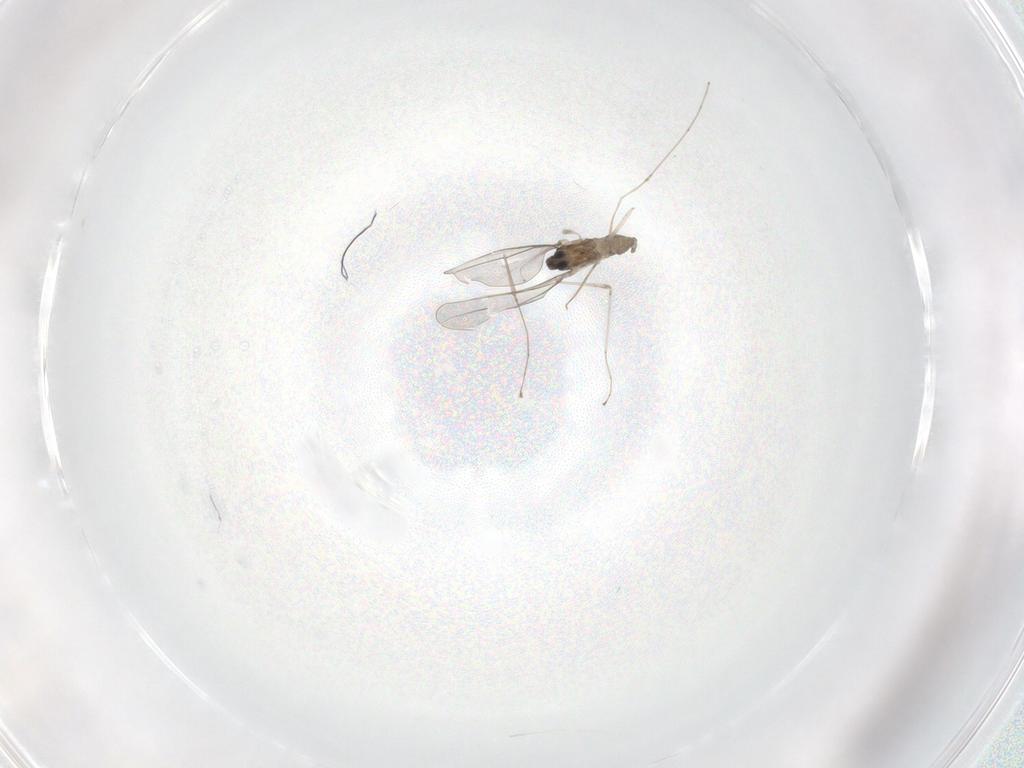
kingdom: Animalia
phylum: Arthropoda
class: Insecta
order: Diptera
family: Cecidomyiidae
